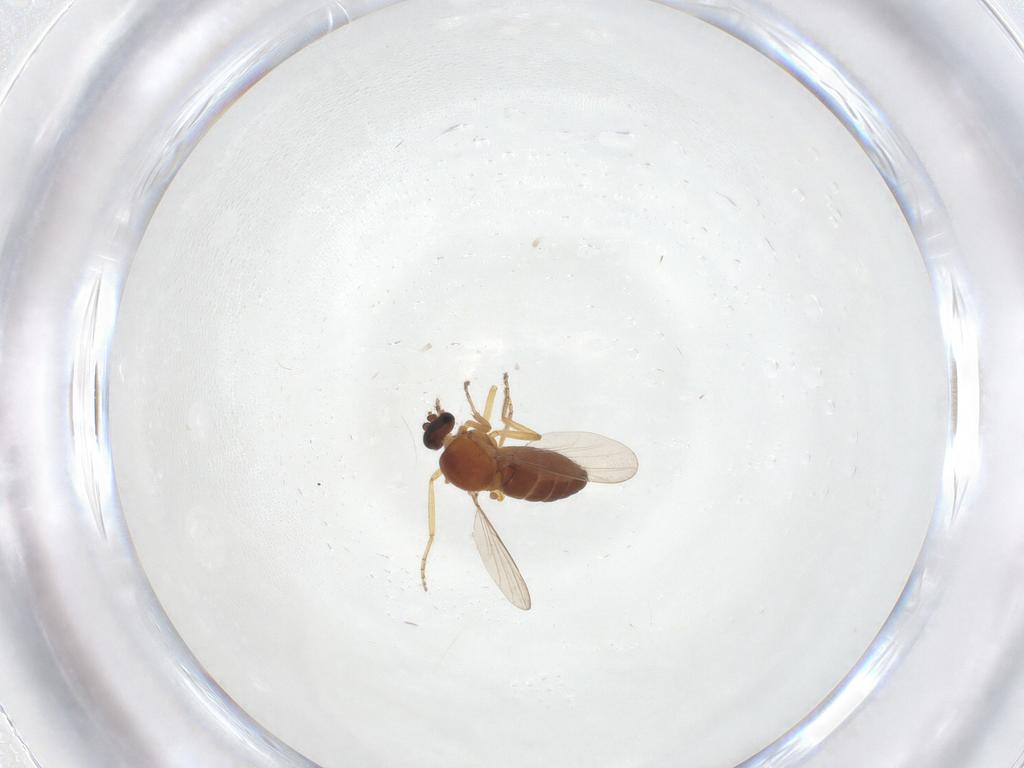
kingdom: Animalia
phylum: Arthropoda
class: Insecta
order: Diptera
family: Ceratopogonidae
